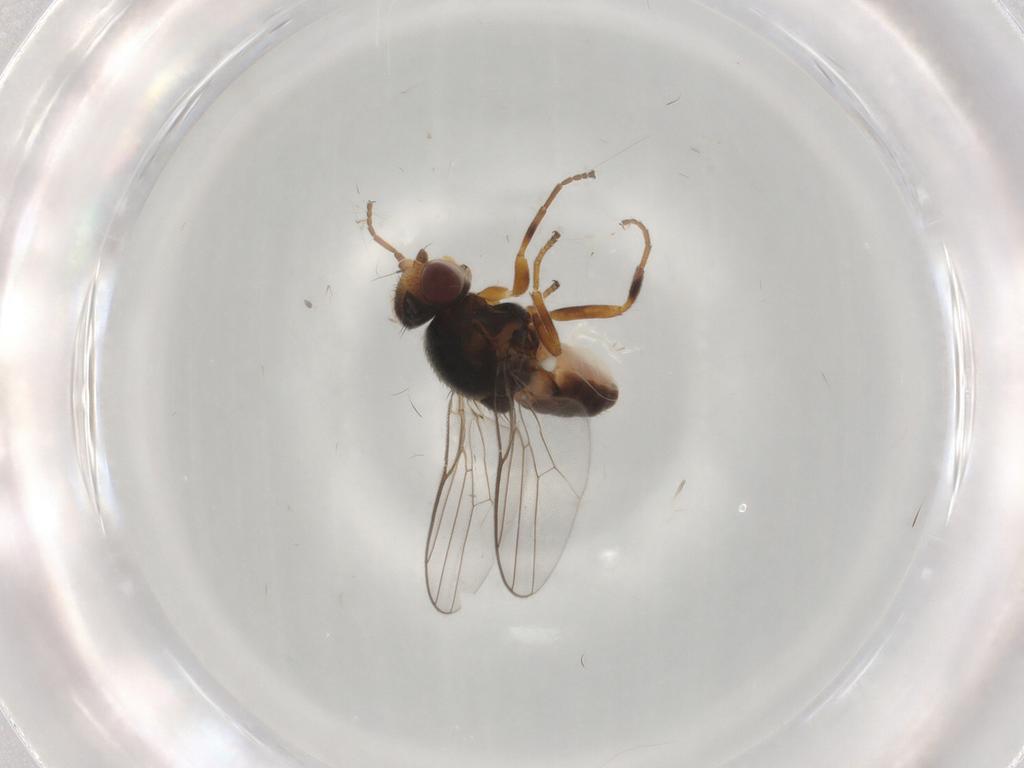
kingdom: Animalia
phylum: Arthropoda
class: Insecta
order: Diptera
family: Chloropidae
